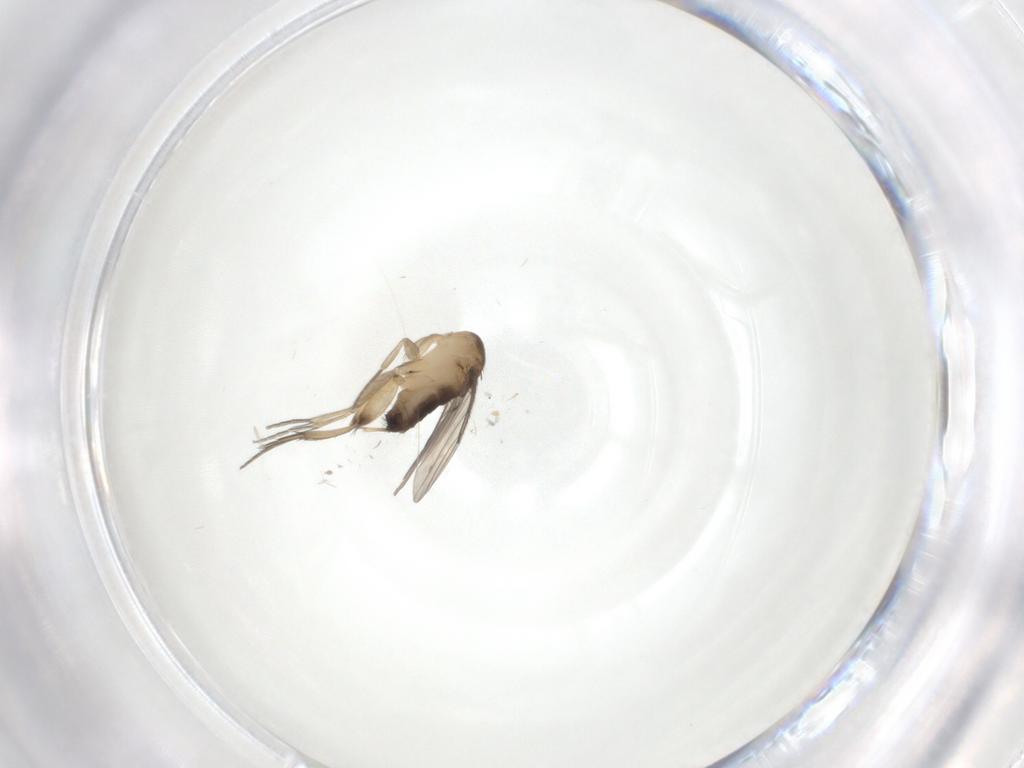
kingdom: Animalia
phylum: Arthropoda
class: Insecta
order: Diptera
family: Phoridae
